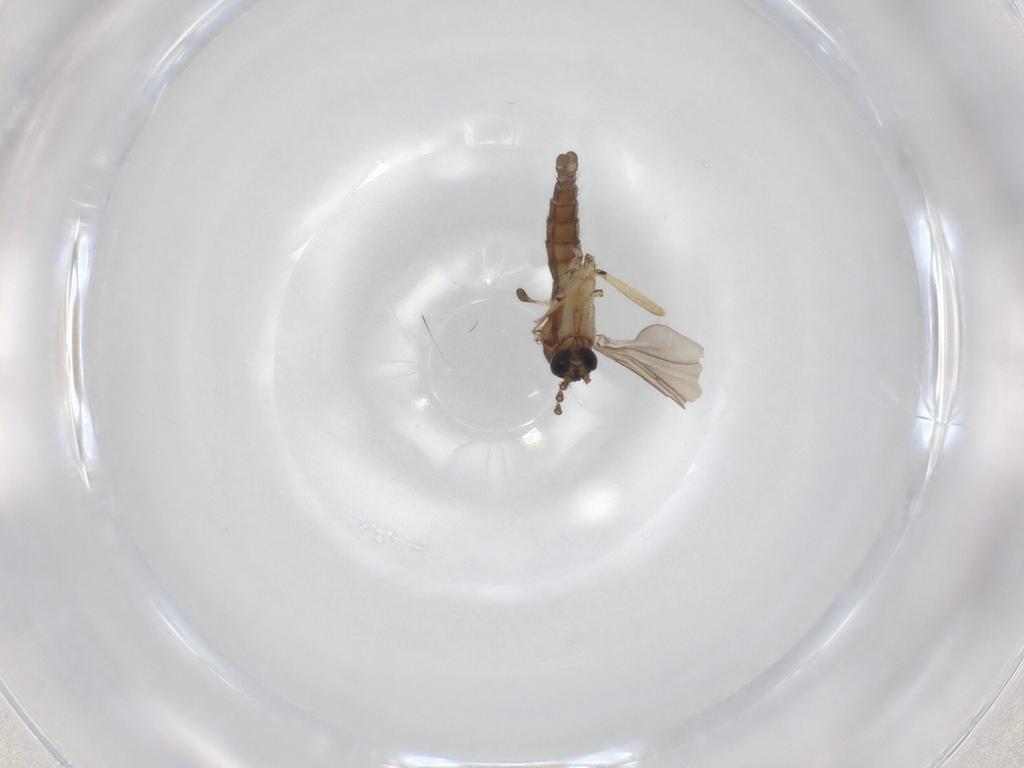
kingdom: Animalia
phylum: Arthropoda
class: Insecta
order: Diptera
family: Sciaridae
